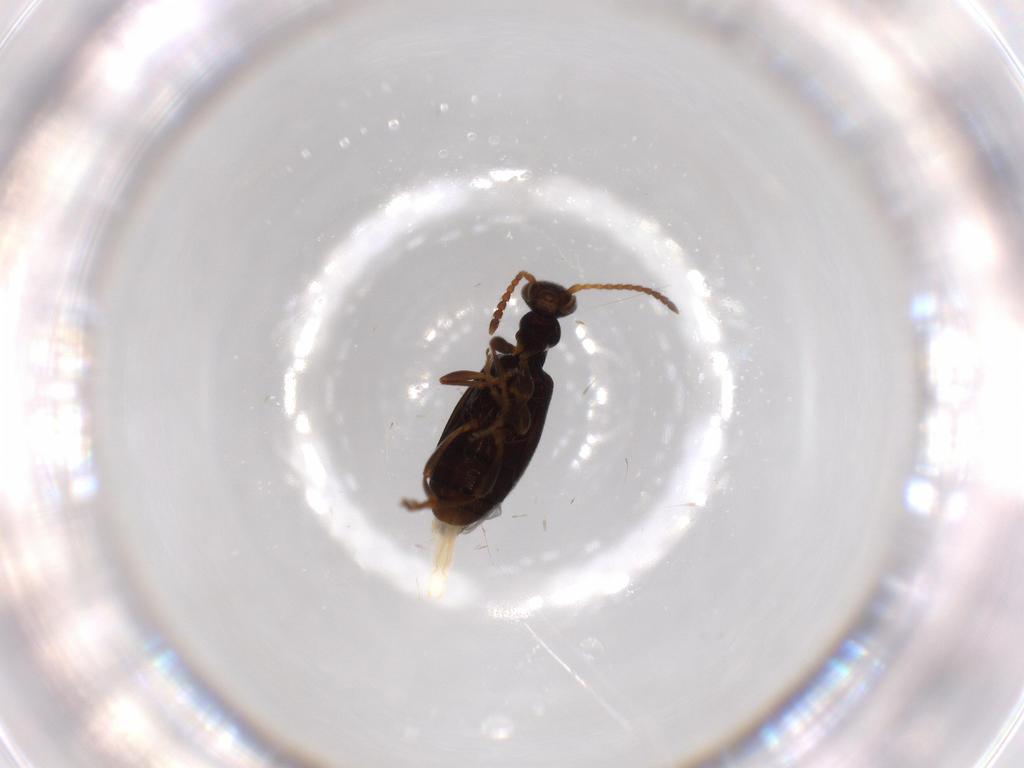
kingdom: Animalia
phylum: Arthropoda
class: Insecta
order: Coleoptera
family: Anthicidae
